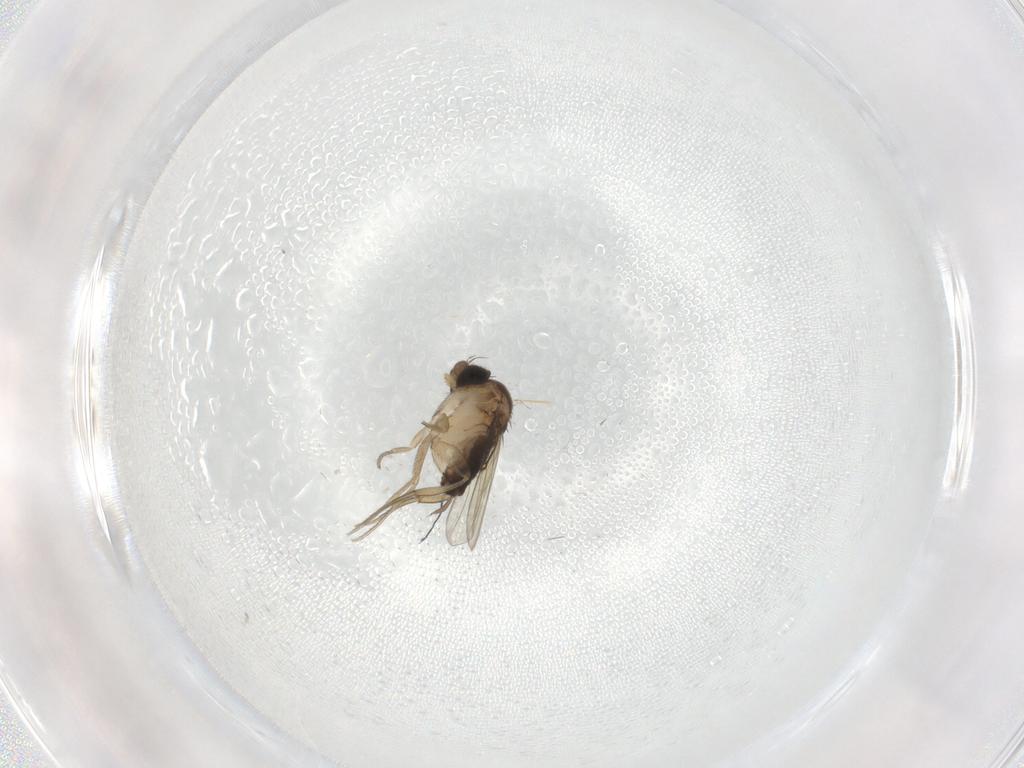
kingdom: Animalia
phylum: Arthropoda
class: Insecta
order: Diptera
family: Phoridae
